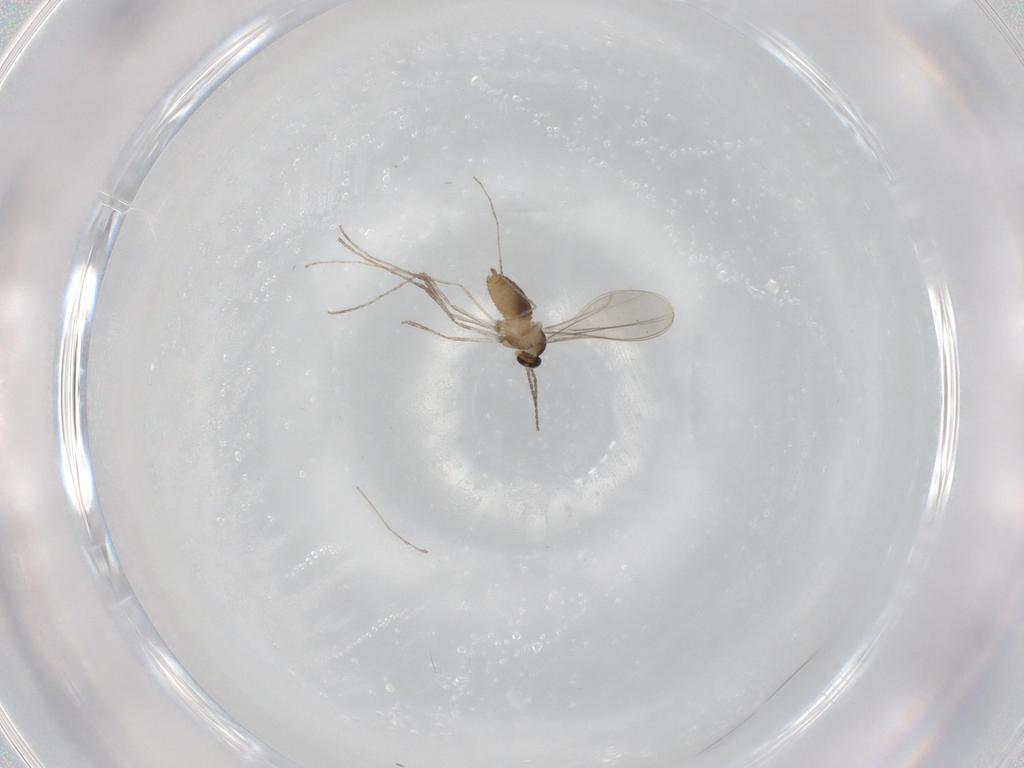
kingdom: Animalia
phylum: Arthropoda
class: Insecta
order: Diptera
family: Cecidomyiidae
